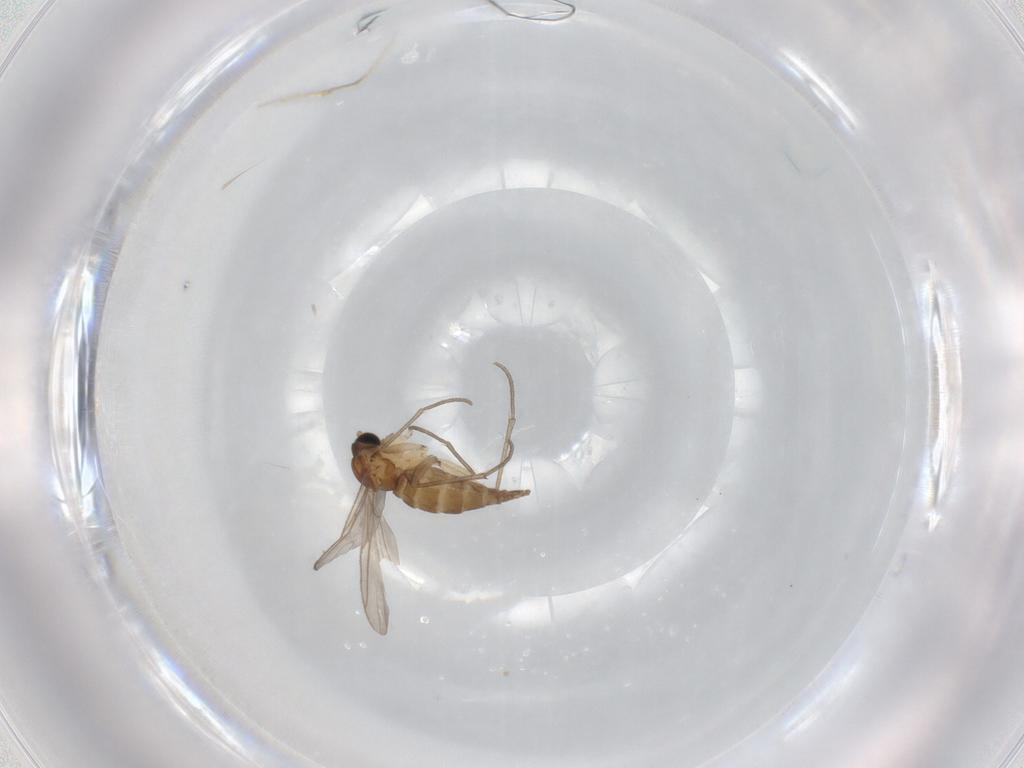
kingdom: Animalia
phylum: Arthropoda
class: Insecta
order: Diptera
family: Sciaridae
